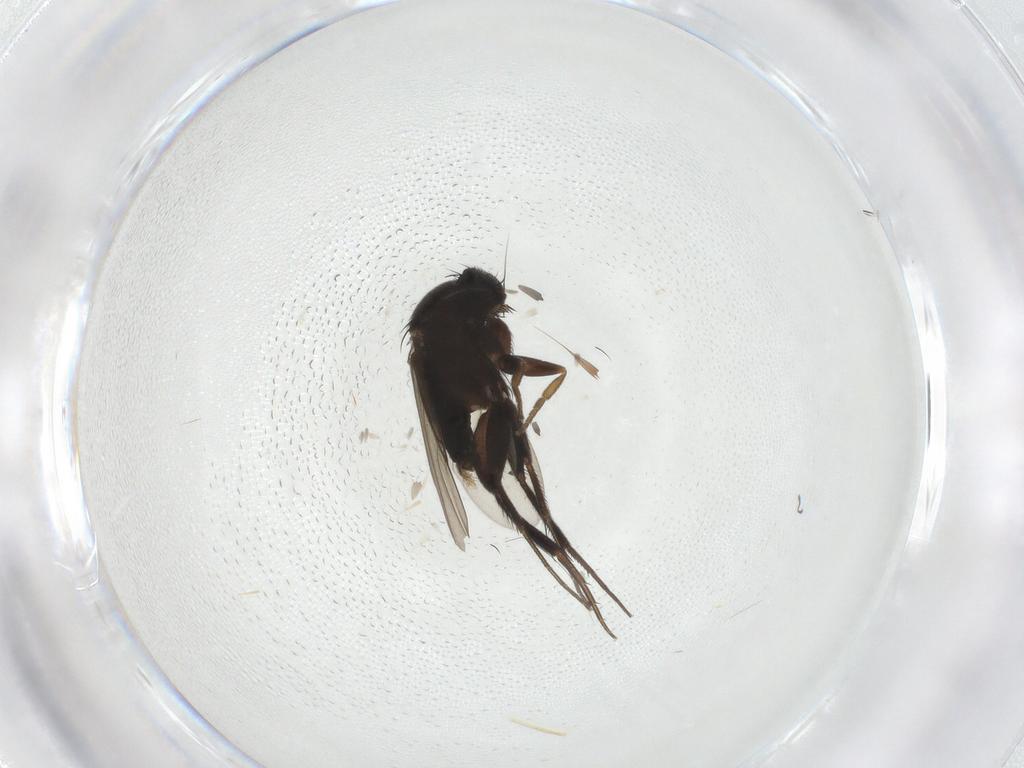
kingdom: Animalia
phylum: Arthropoda
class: Insecta
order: Diptera
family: Phoridae
